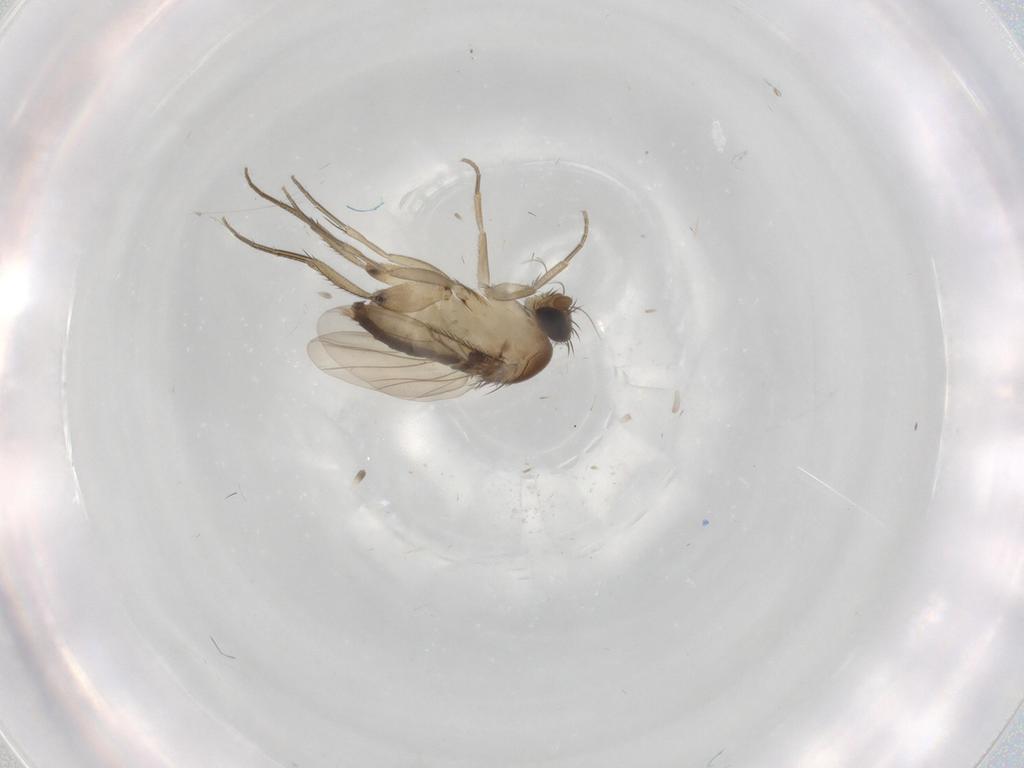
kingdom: Animalia
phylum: Arthropoda
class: Insecta
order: Diptera
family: Cecidomyiidae
